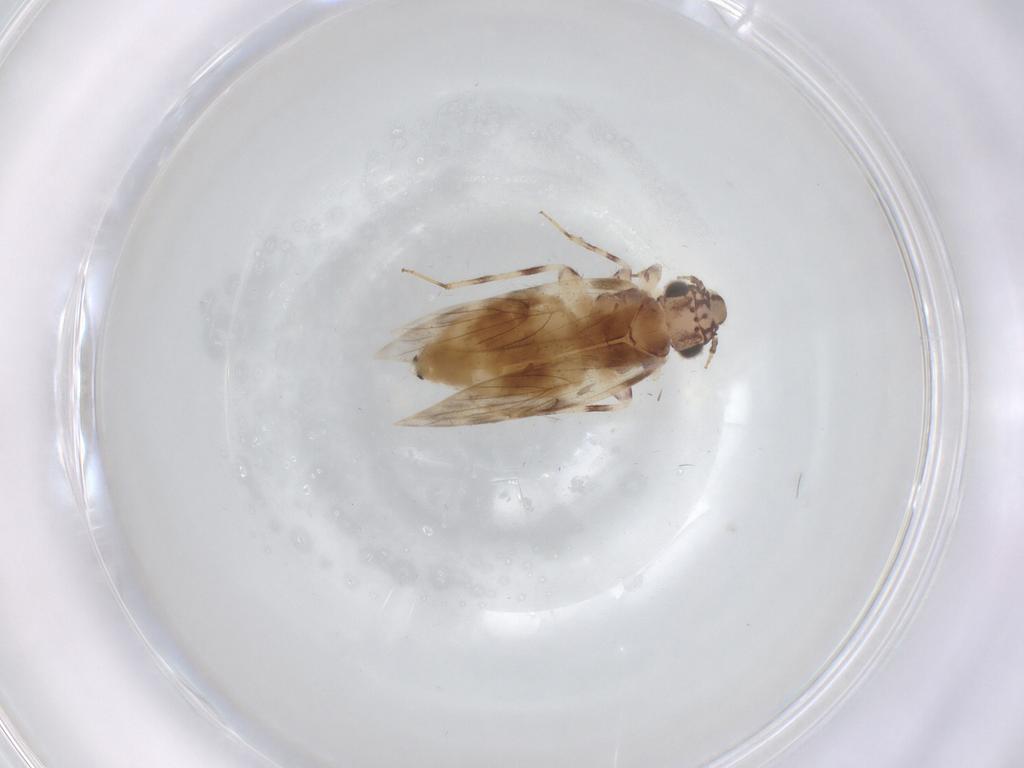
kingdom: Animalia
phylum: Arthropoda
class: Insecta
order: Psocodea
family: Lepidopsocidae
